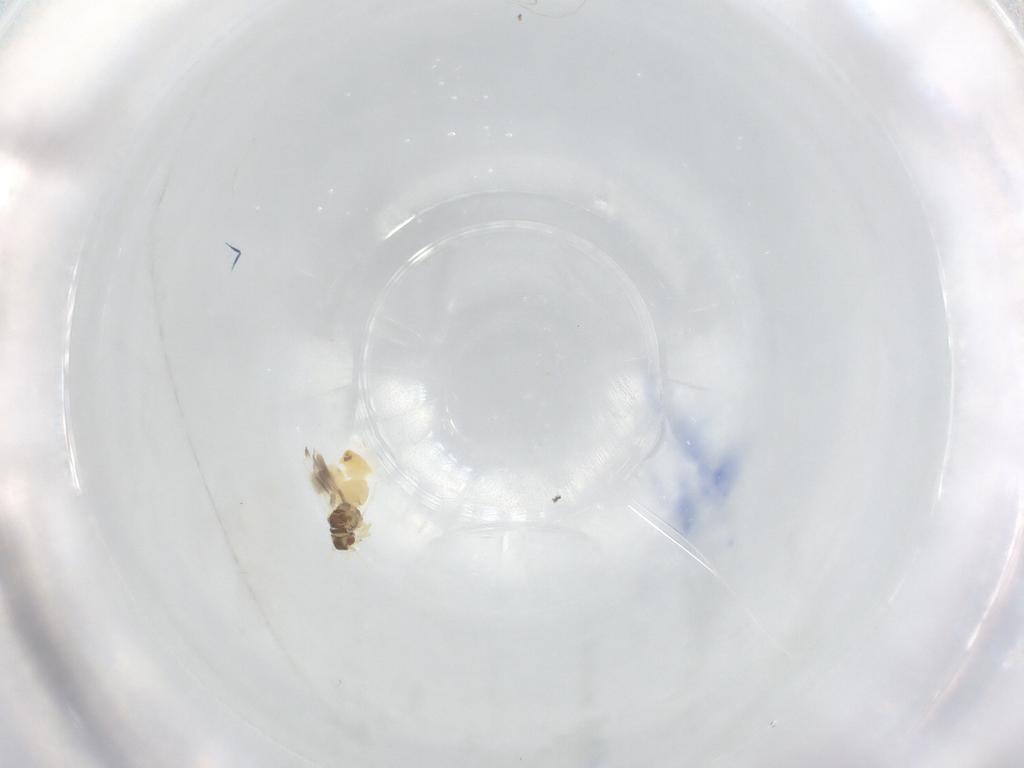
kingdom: Animalia
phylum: Arthropoda
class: Insecta
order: Hemiptera
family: Aleyrodidae
